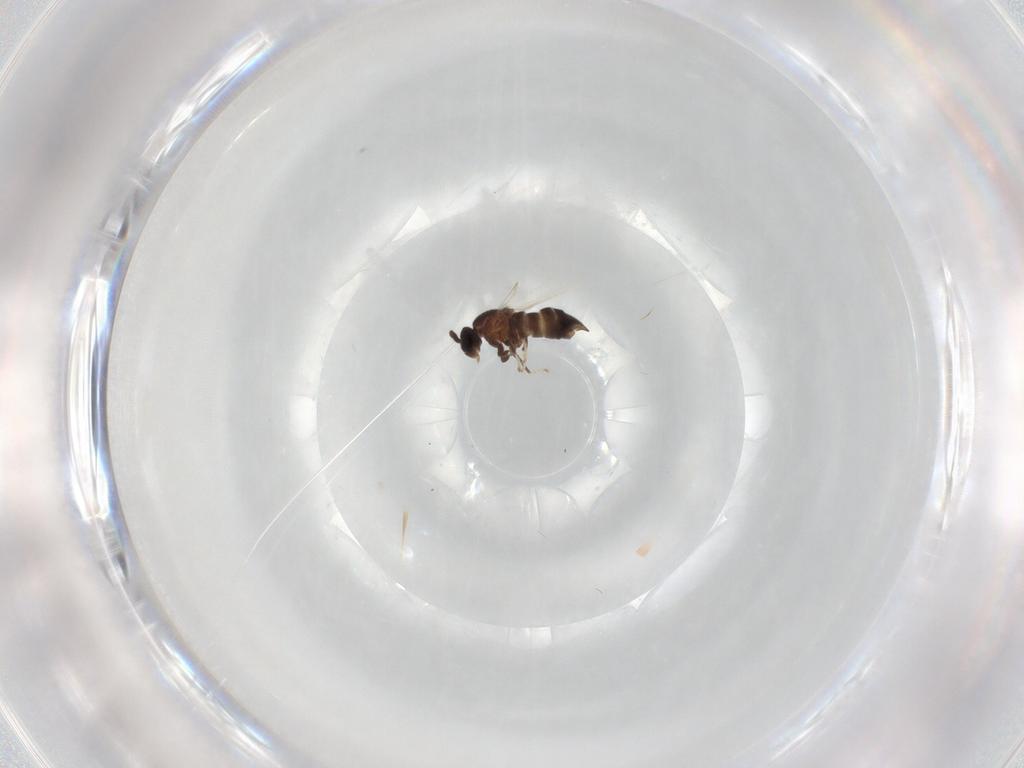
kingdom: Animalia
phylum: Arthropoda
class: Insecta
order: Diptera
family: Scatopsidae
